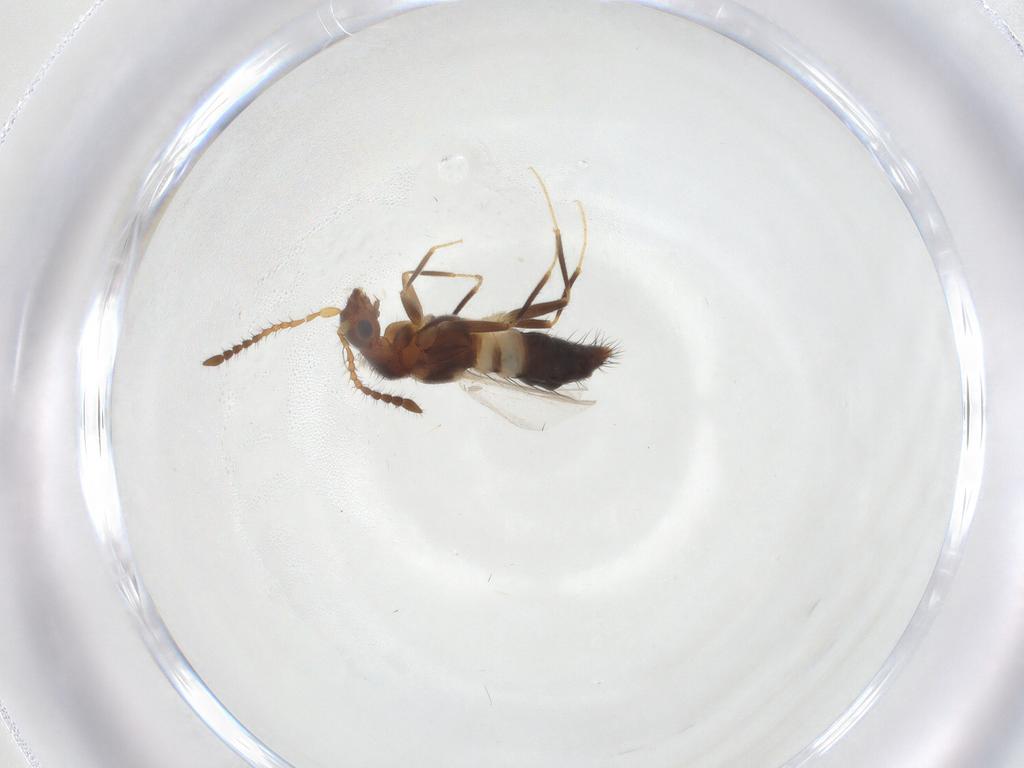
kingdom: Animalia
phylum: Arthropoda
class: Insecta
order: Coleoptera
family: Staphylinidae
